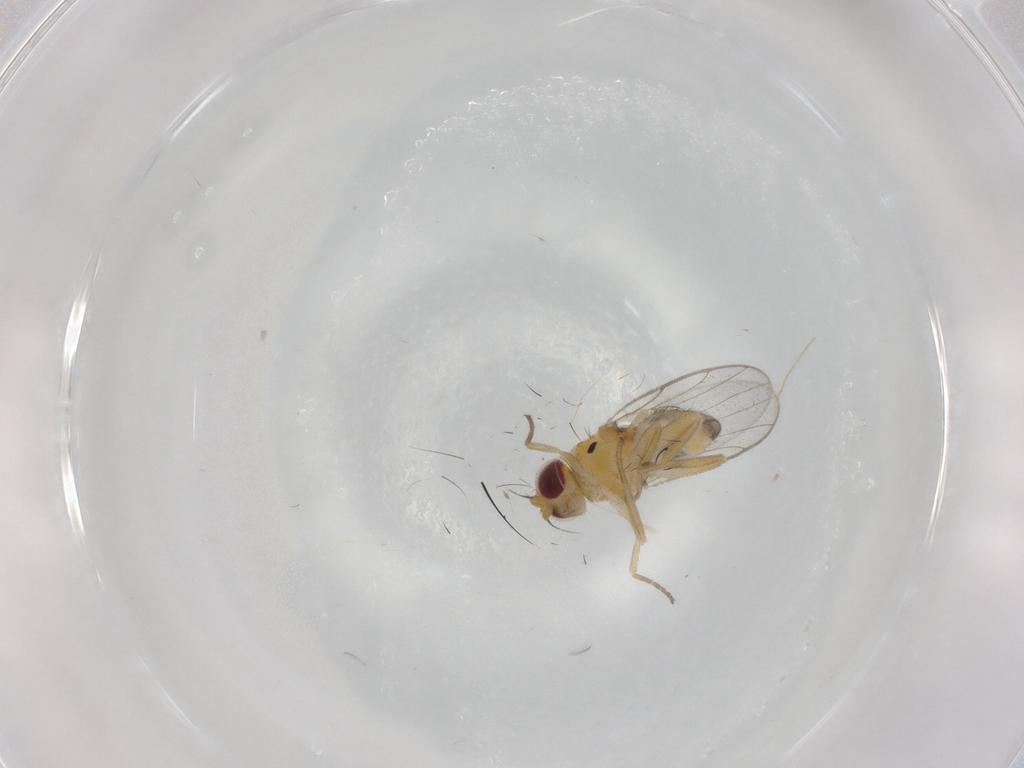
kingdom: Animalia
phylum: Arthropoda
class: Insecta
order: Diptera
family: Chloropidae
